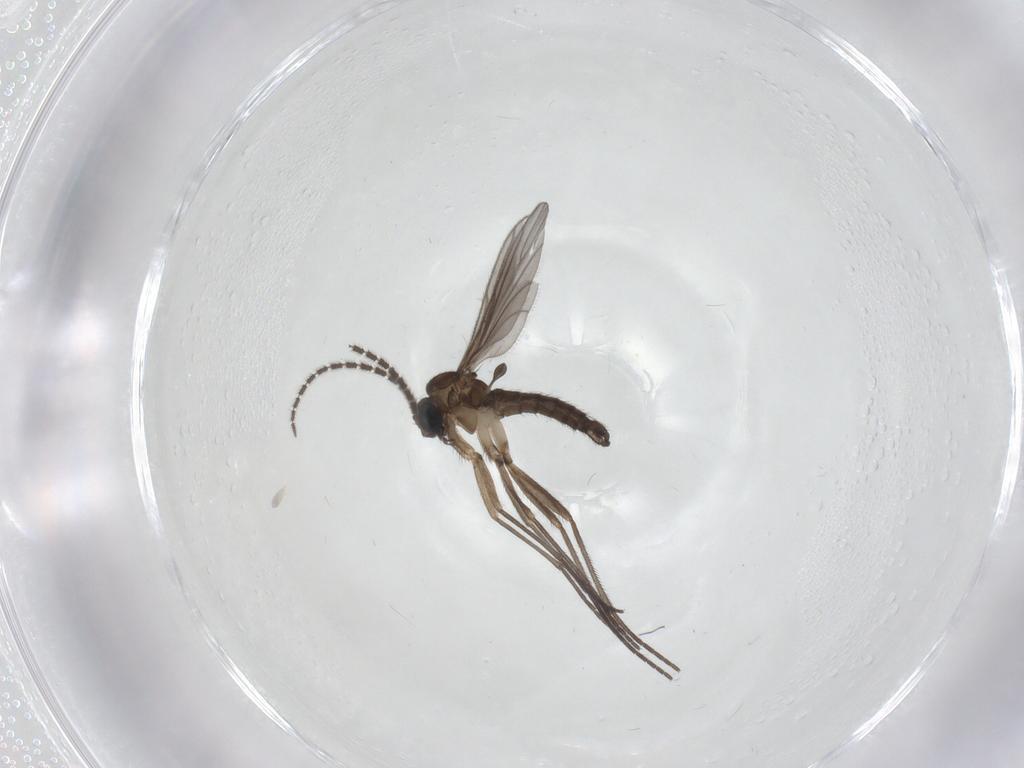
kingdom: Animalia
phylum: Arthropoda
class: Insecta
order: Diptera
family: Sciaridae
